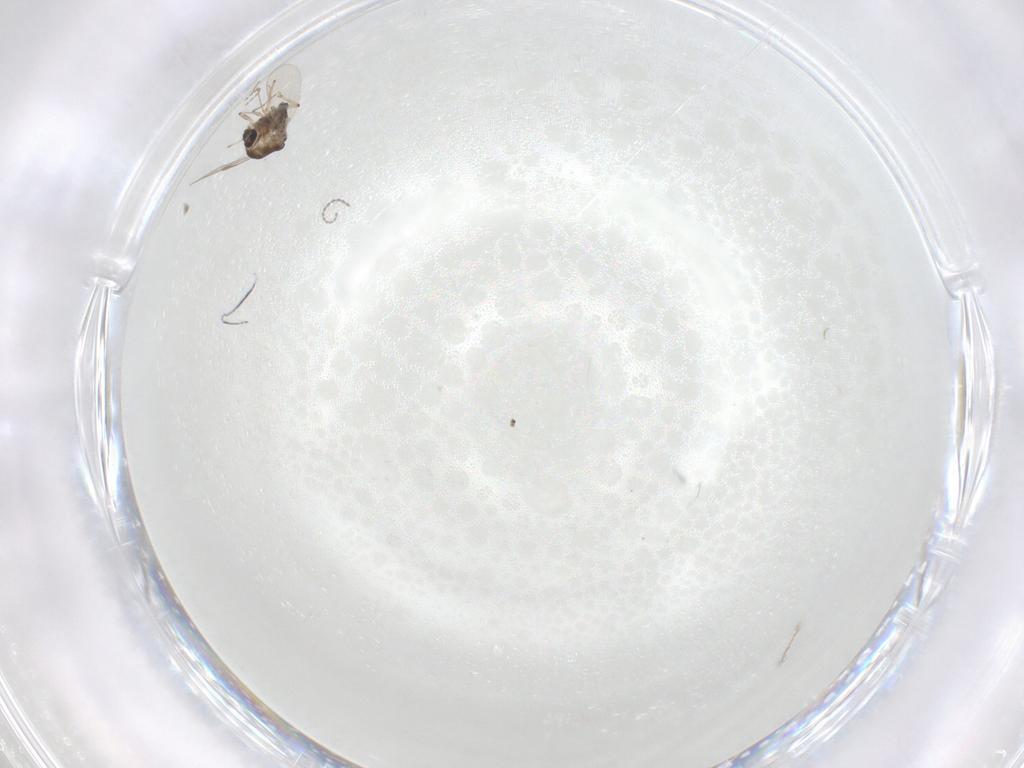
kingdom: Animalia
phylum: Arthropoda
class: Insecta
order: Diptera
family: Chironomidae
